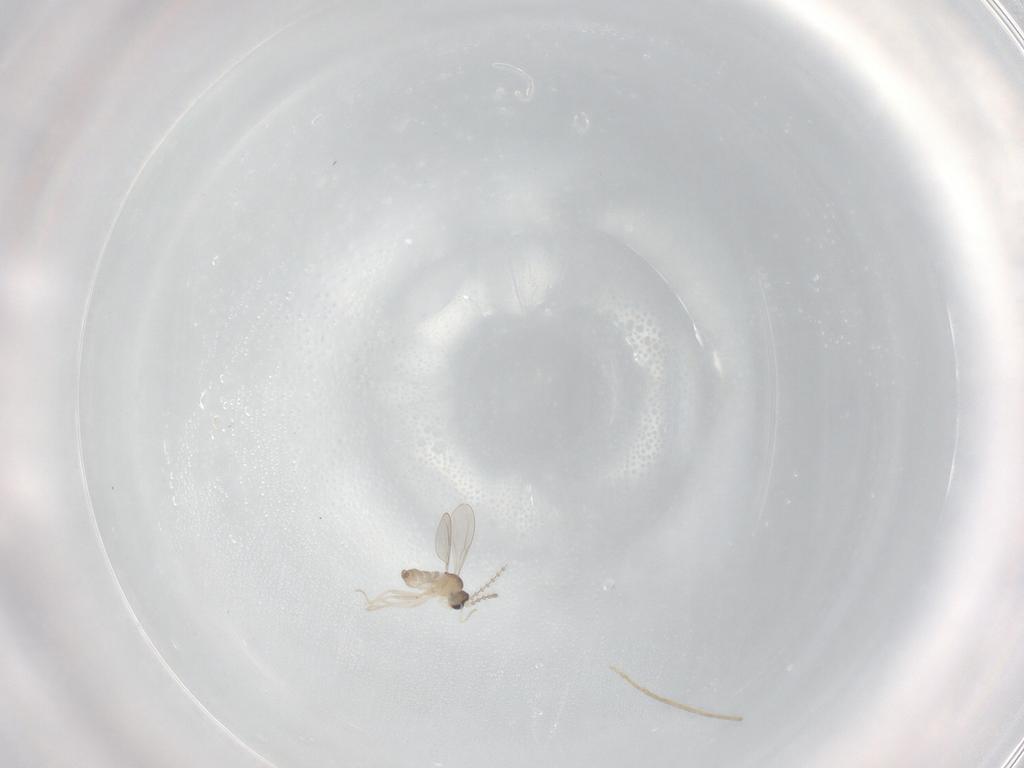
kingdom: Animalia
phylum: Arthropoda
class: Insecta
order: Diptera
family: Cecidomyiidae
